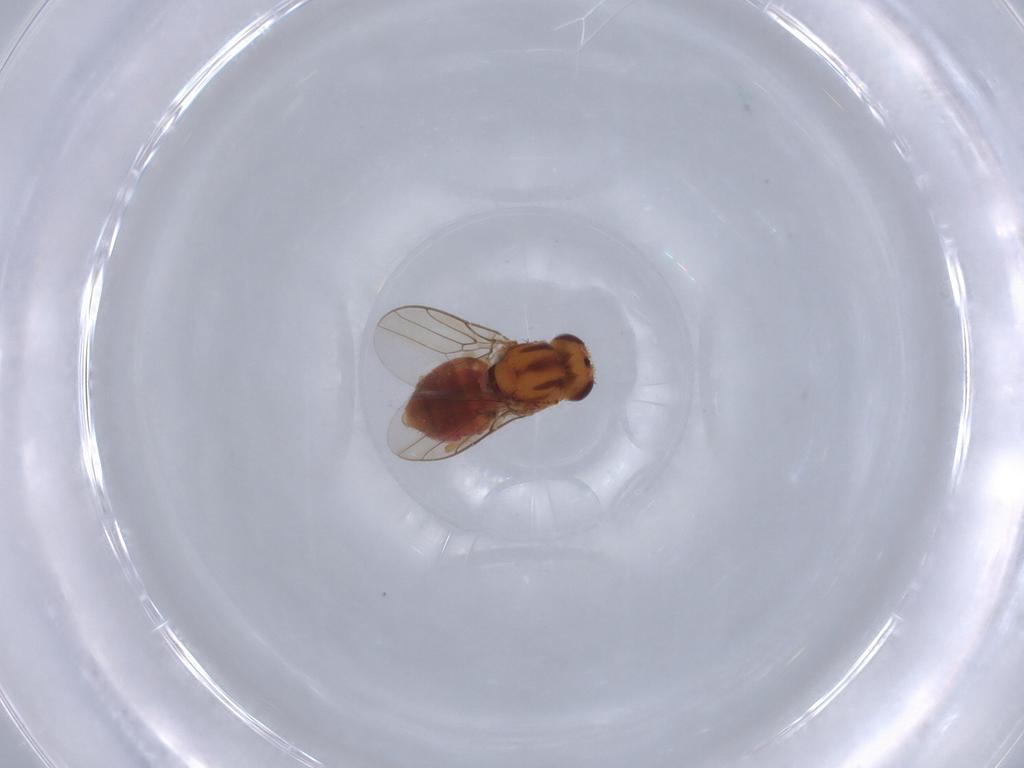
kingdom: Animalia
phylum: Arthropoda
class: Insecta
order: Diptera
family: Chloropidae
